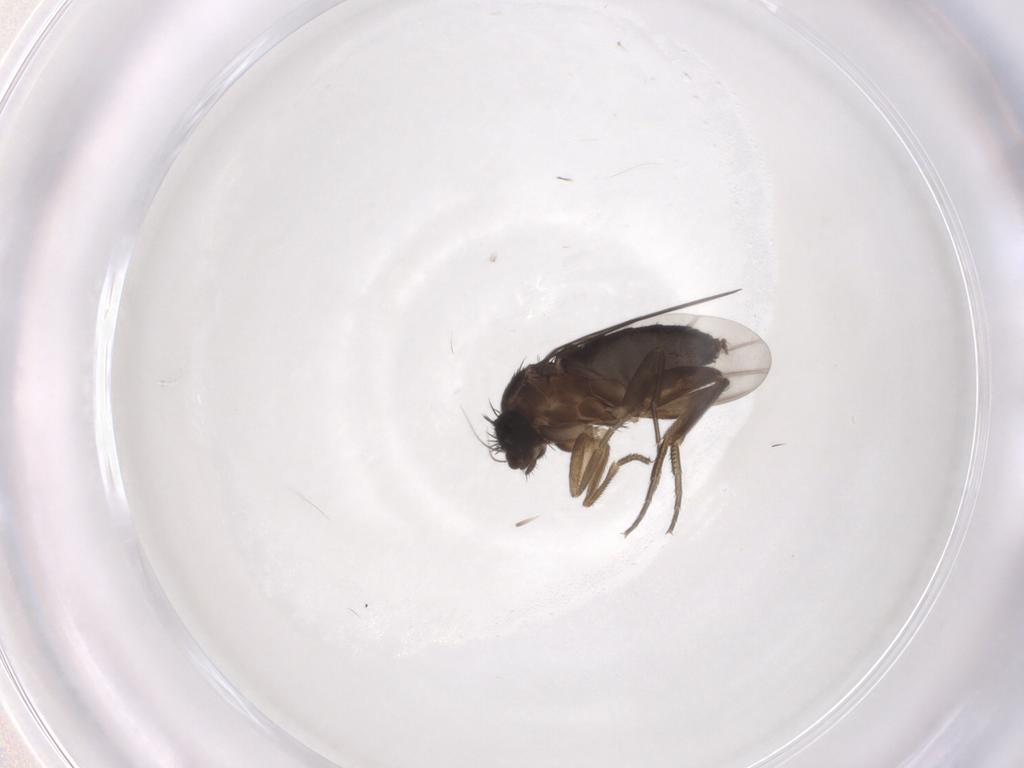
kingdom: Animalia
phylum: Arthropoda
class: Insecta
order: Diptera
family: Phoridae
